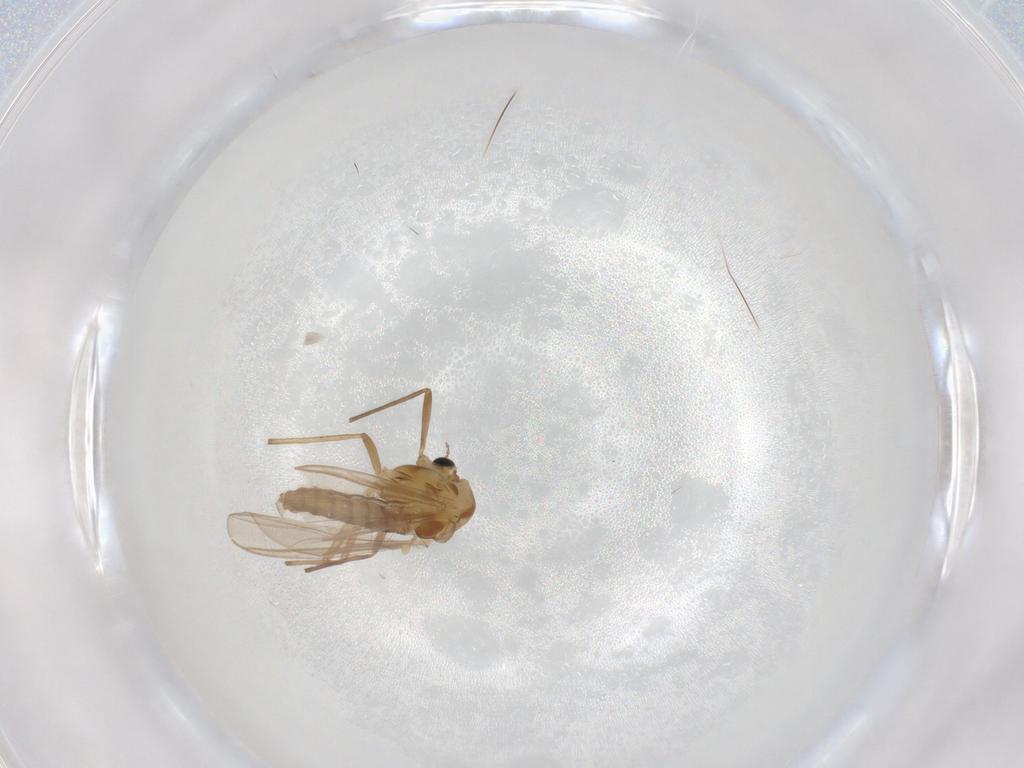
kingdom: Animalia
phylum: Arthropoda
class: Insecta
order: Diptera
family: Chironomidae
